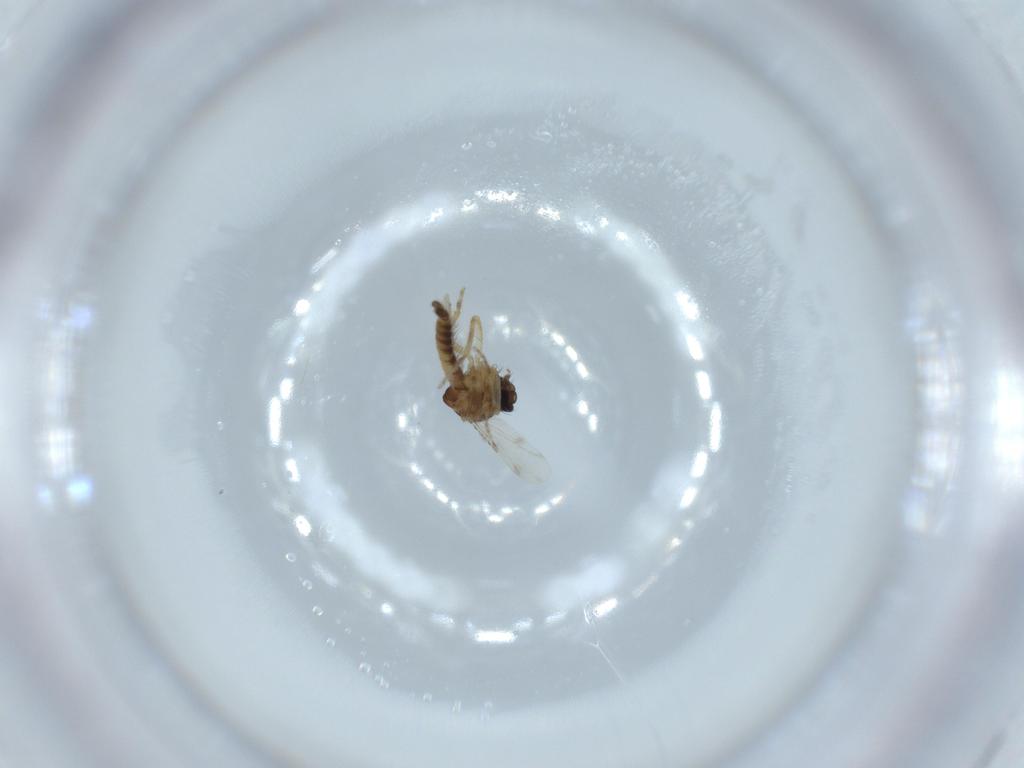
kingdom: Animalia
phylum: Arthropoda
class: Insecta
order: Diptera
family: Ceratopogonidae
